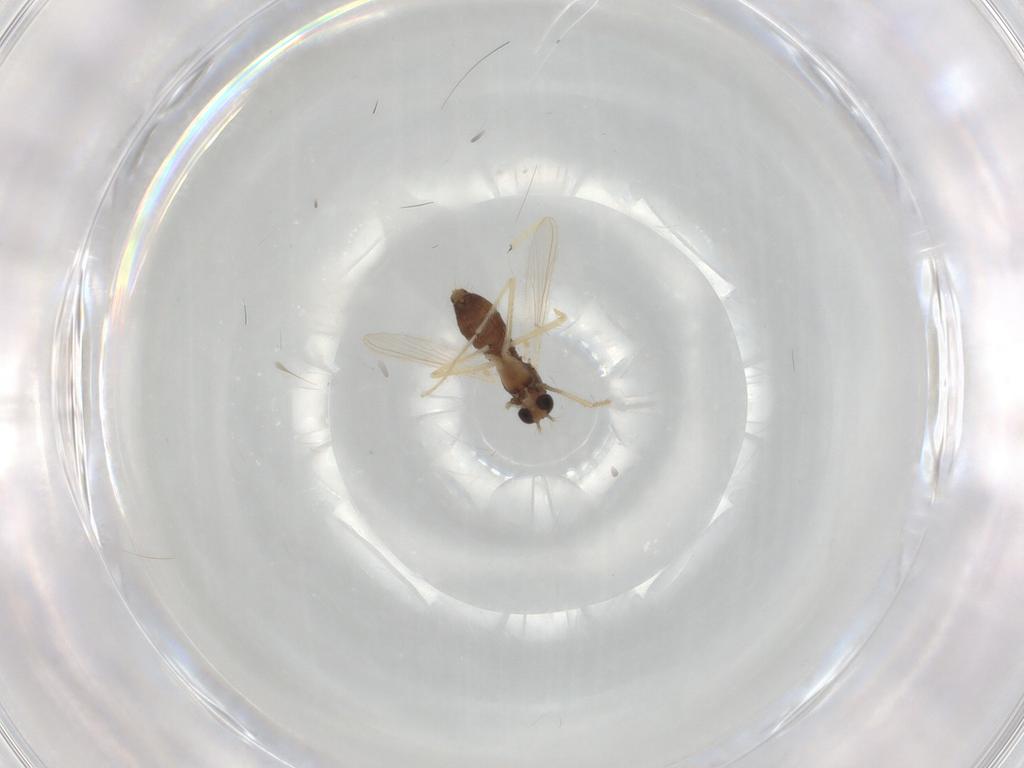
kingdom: Animalia
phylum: Arthropoda
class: Insecta
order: Diptera
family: Chironomidae
